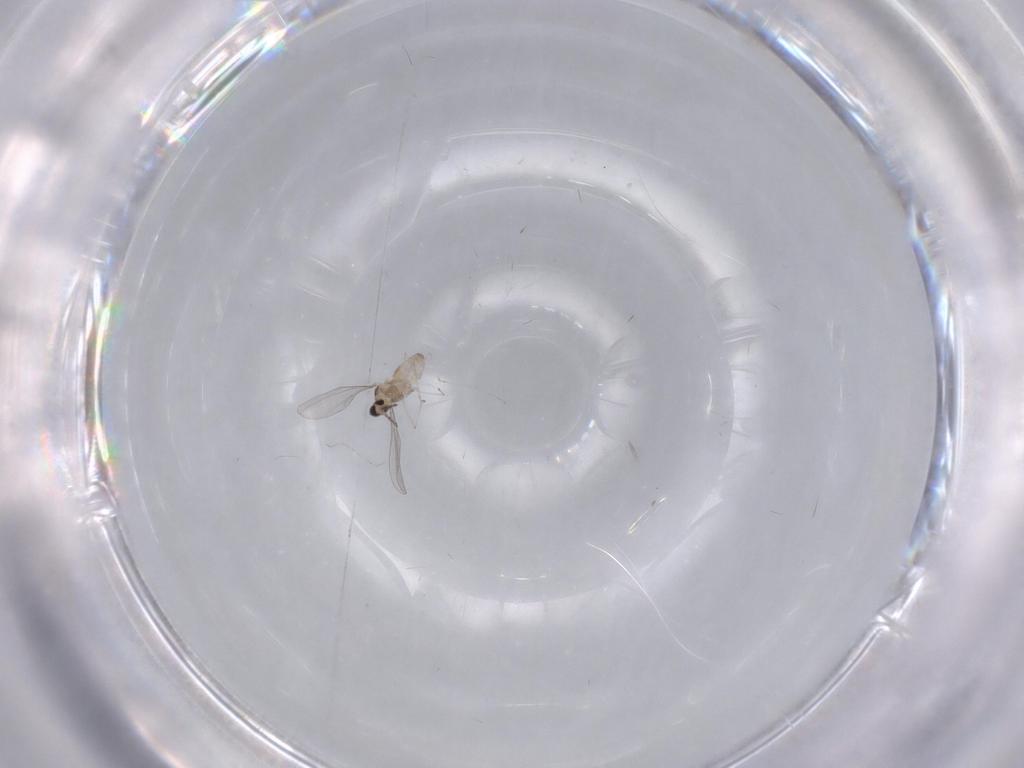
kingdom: Animalia
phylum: Arthropoda
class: Insecta
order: Diptera
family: Cecidomyiidae
